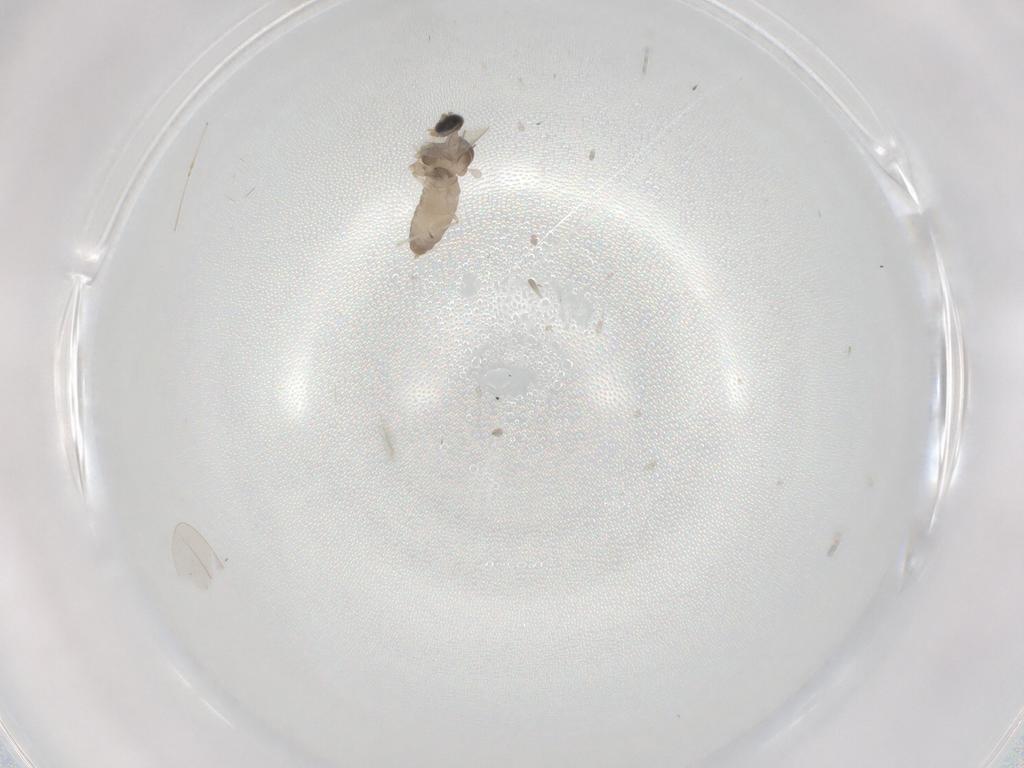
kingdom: Animalia
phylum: Arthropoda
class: Insecta
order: Diptera
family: Cecidomyiidae
